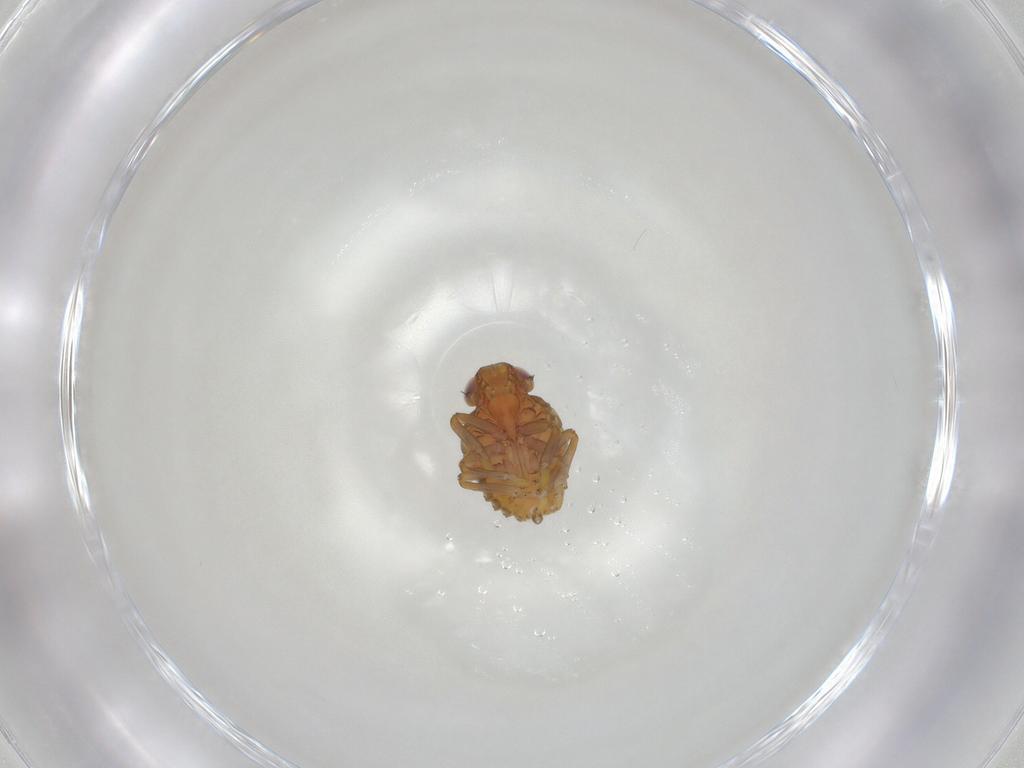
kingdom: Animalia
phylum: Arthropoda
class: Insecta
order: Hemiptera
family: Issidae
